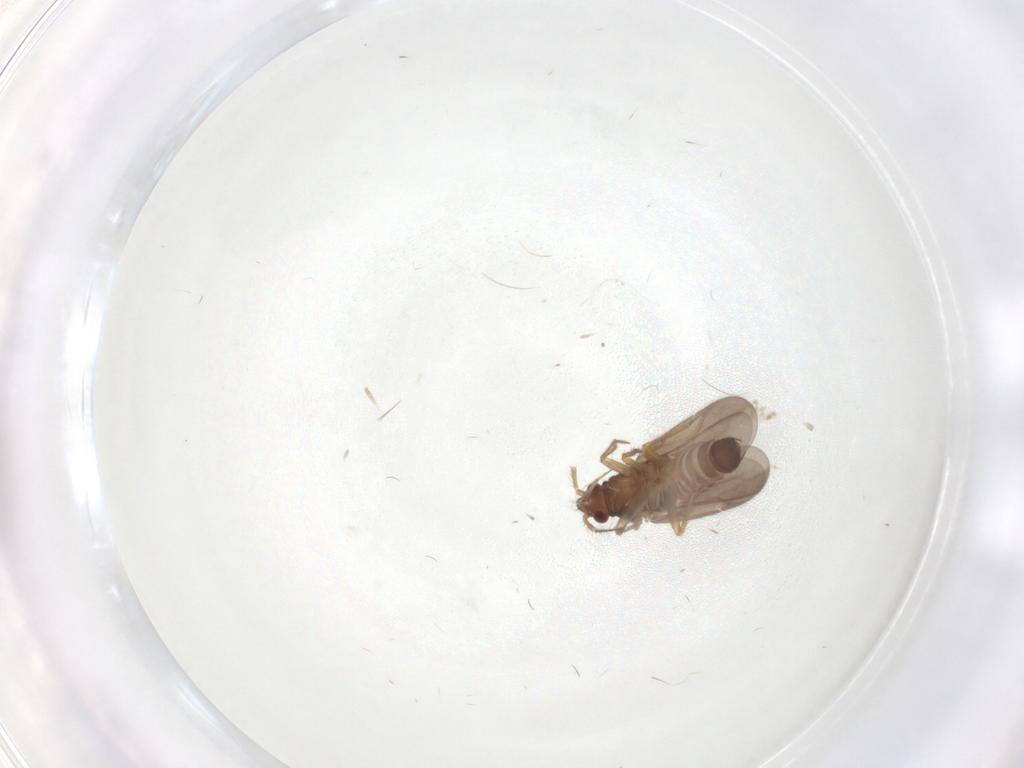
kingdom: Animalia
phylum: Arthropoda
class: Insecta
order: Hemiptera
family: Ceratocombidae
